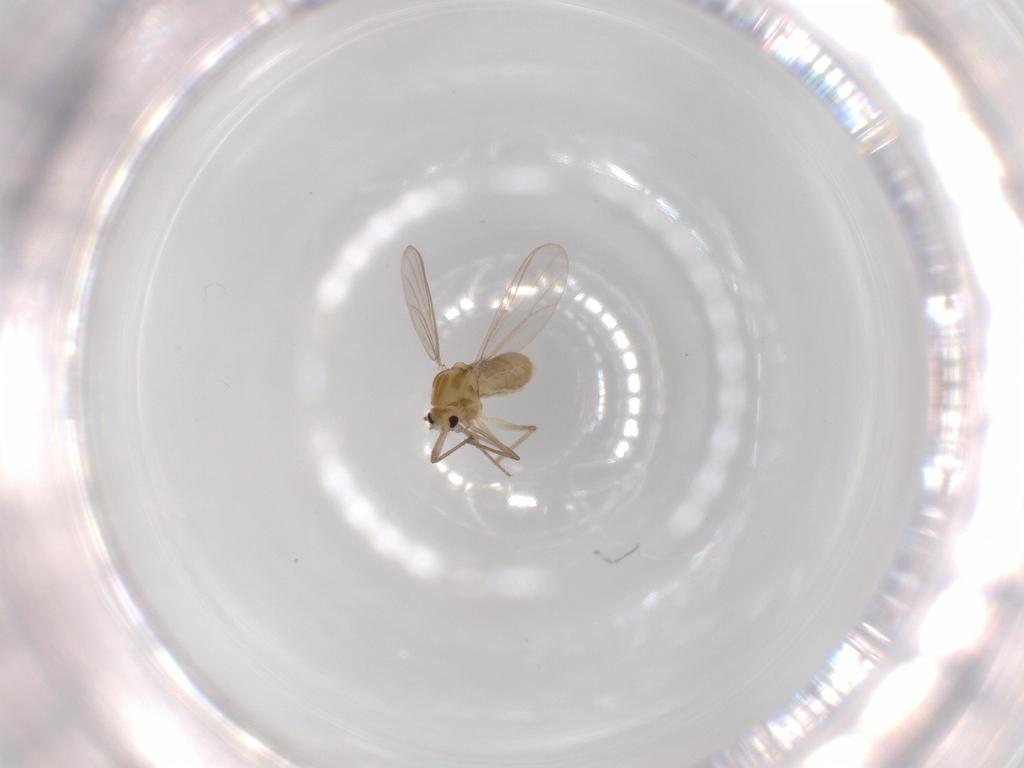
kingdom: Animalia
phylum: Arthropoda
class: Insecta
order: Diptera
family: Chironomidae
